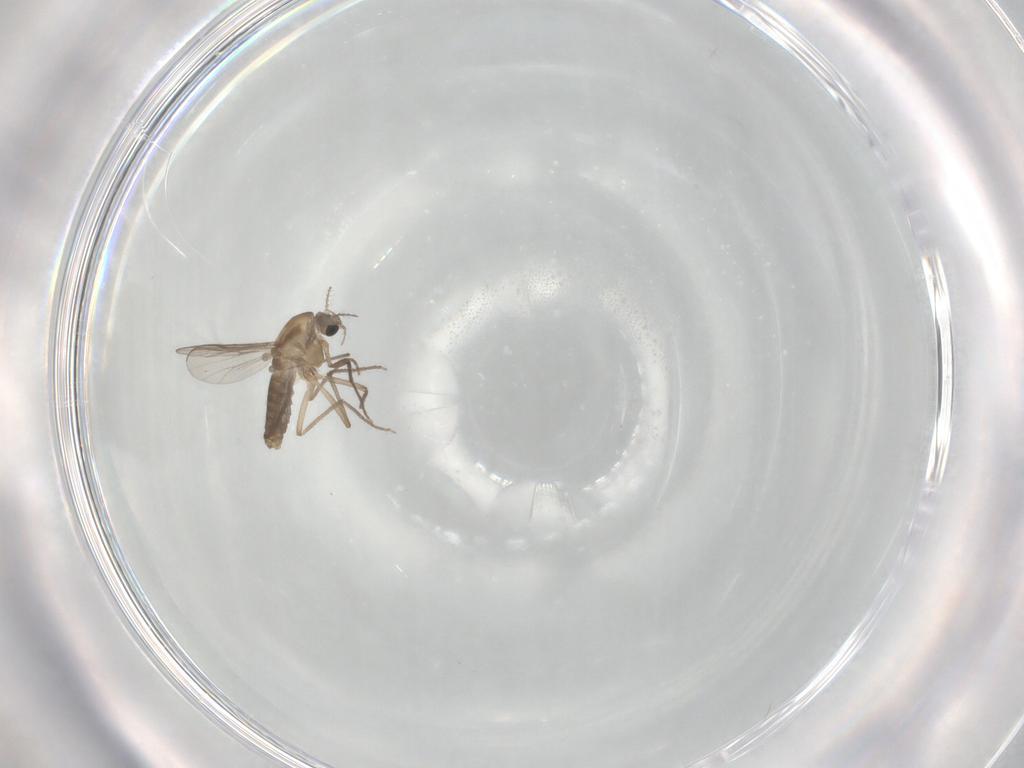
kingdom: Animalia
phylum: Arthropoda
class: Insecta
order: Diptera
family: Chironomidae
